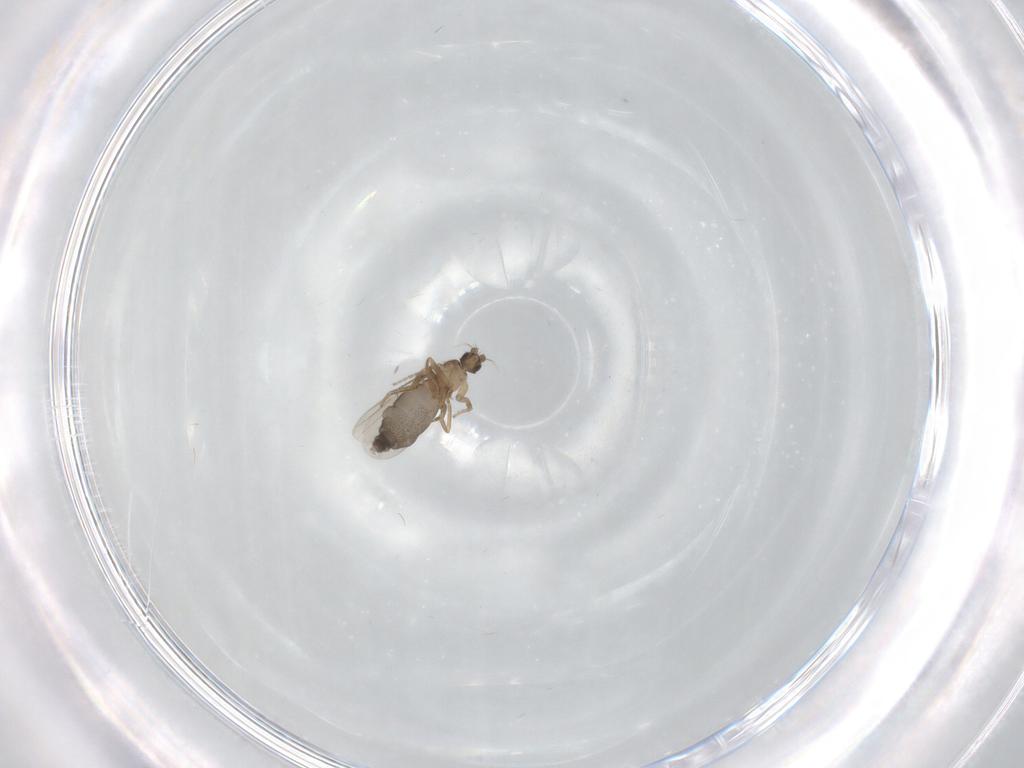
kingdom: Animalia
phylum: Arthropoda
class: Insecta
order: Diptera
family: Phoridae
